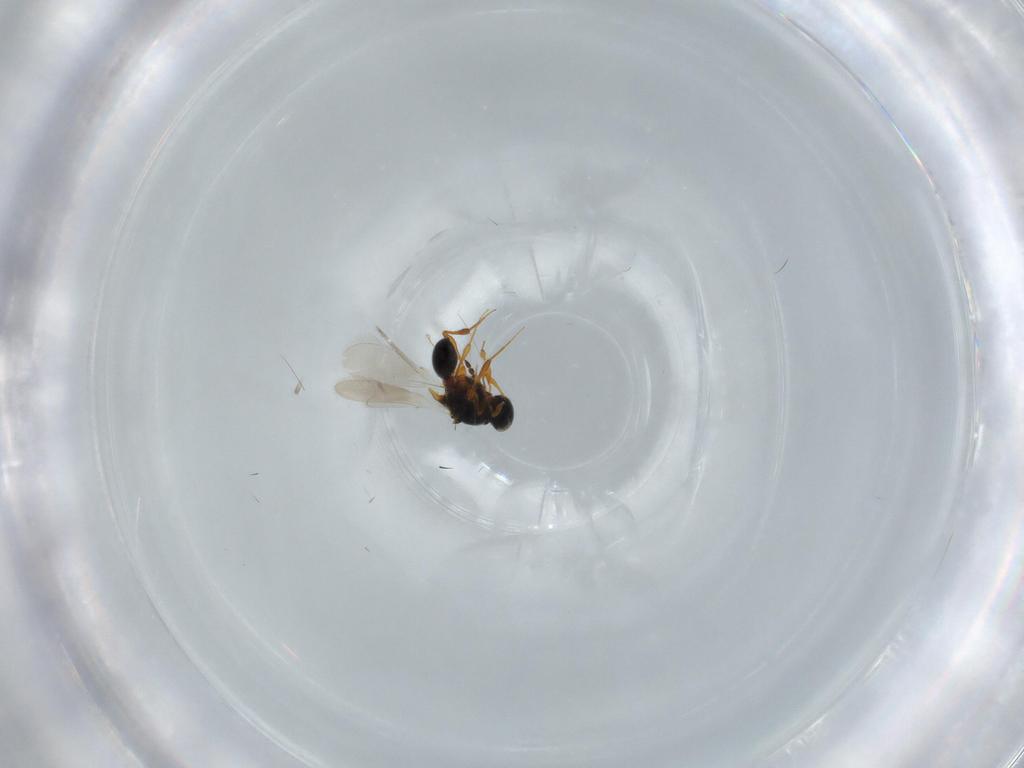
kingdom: Animalia
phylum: Arthropoda
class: Insecta
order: Hymenoptera
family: Platygastridae
